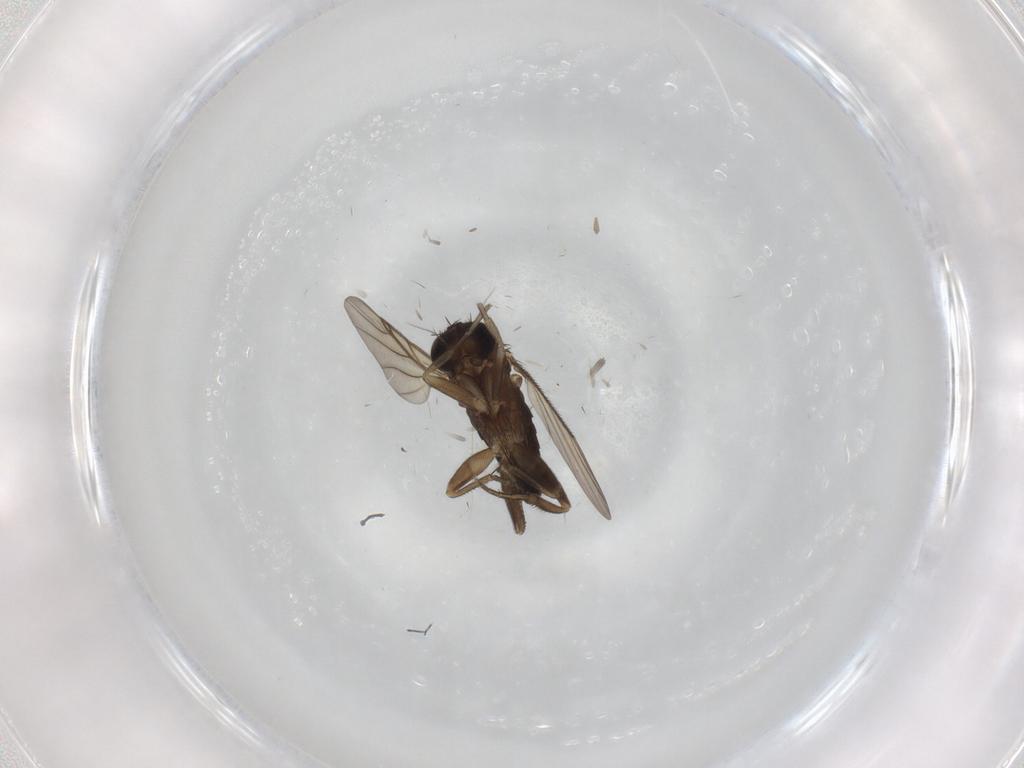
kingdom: Animalia
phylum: Arthropoda
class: Insecta
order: Diptera
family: Phoridae
